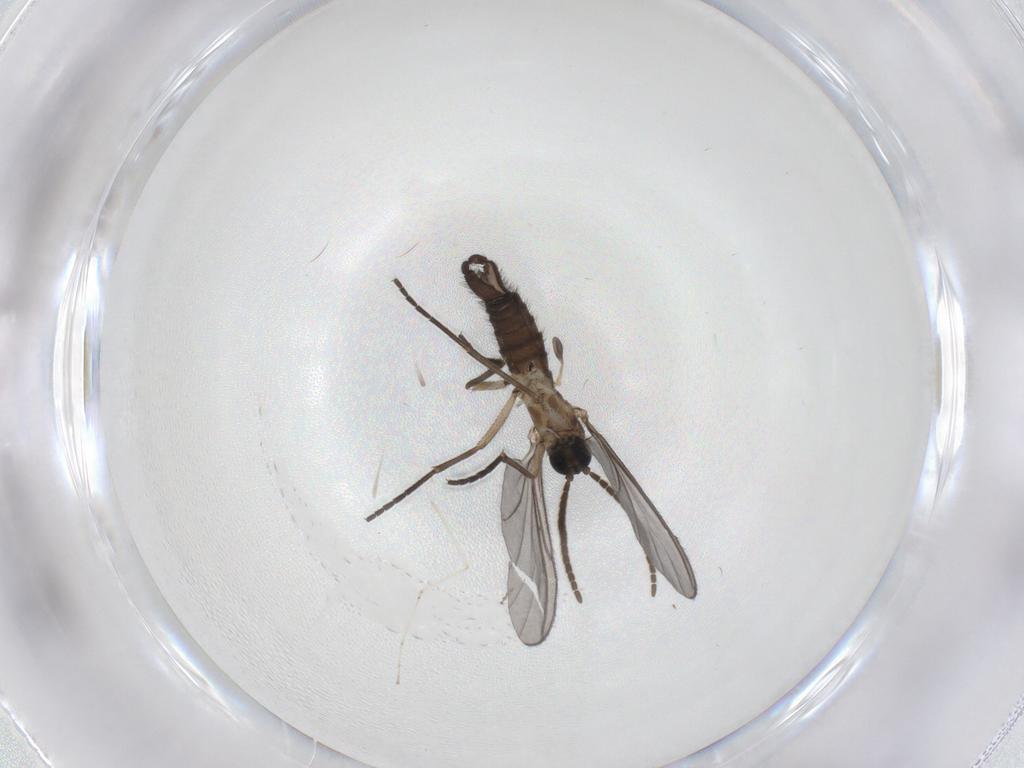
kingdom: Animalia
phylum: Arthropoda
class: Insecta
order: Diptera
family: Sciaridae
